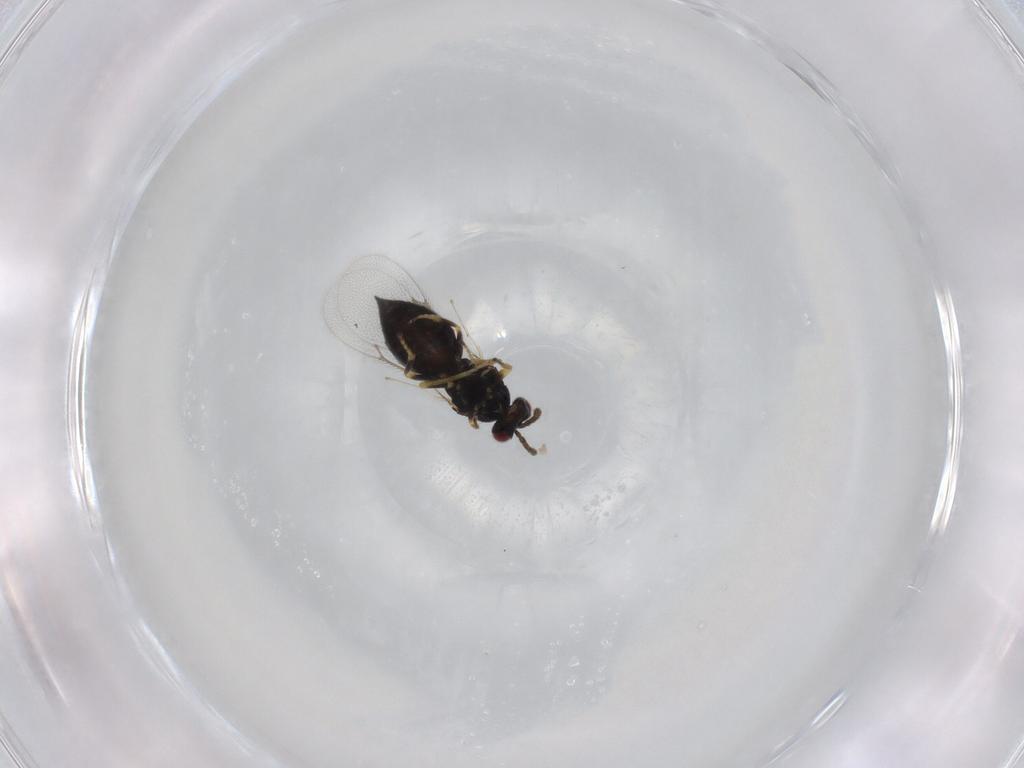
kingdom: Animalia
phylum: Arthropoda
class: Insecta
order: Hymenoptera
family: Eulophidae
